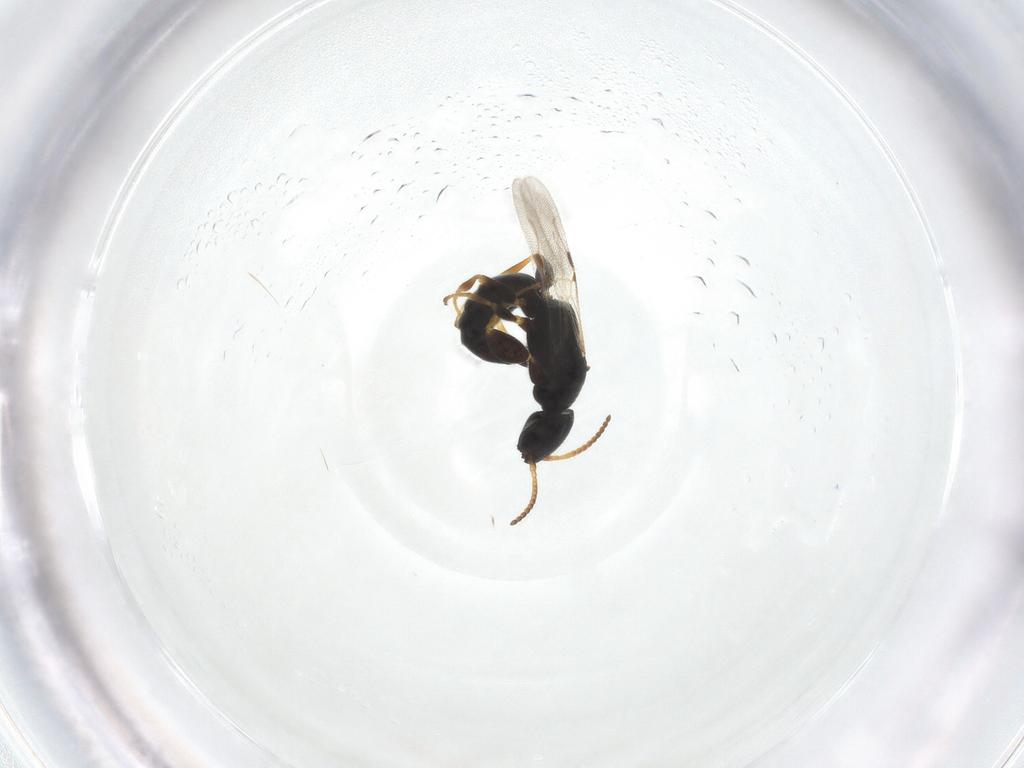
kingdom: Animalia
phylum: Arthropoda
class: Insecta
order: Hymenoptera
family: Bethylidae
